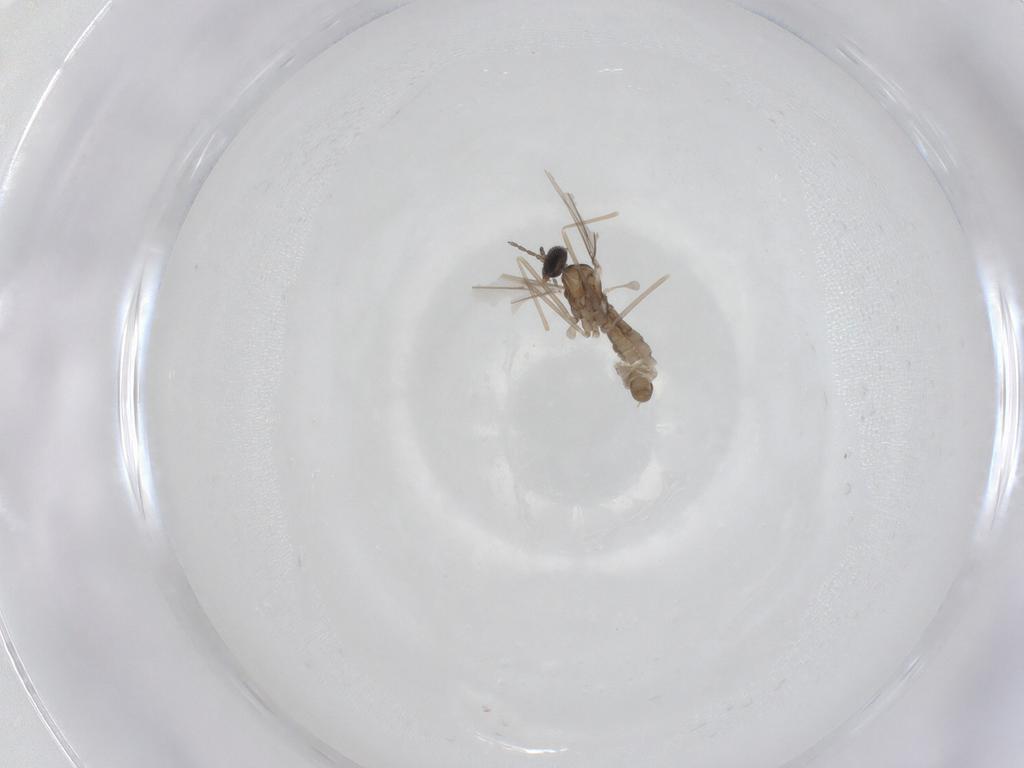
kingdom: Animalia
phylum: Arthropoda
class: Insecta
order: Diptera
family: Cecidomyiidae
